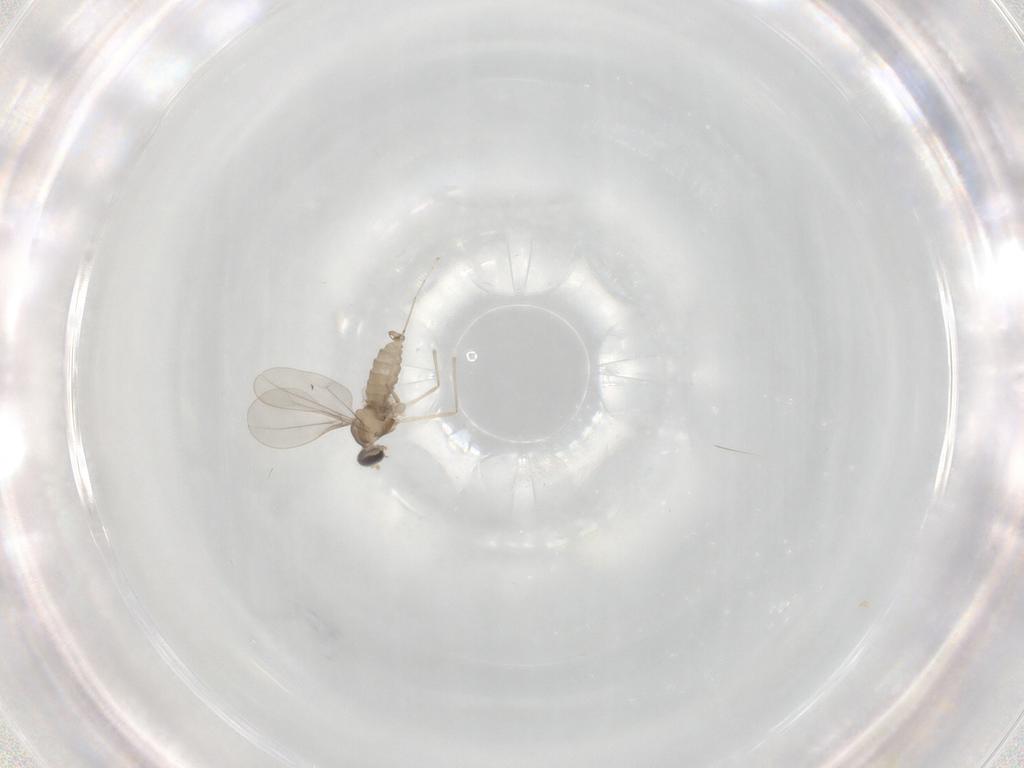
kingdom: Animalia
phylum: Arthropoda
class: Insecta
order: Diptera
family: Cecidomyiidae
